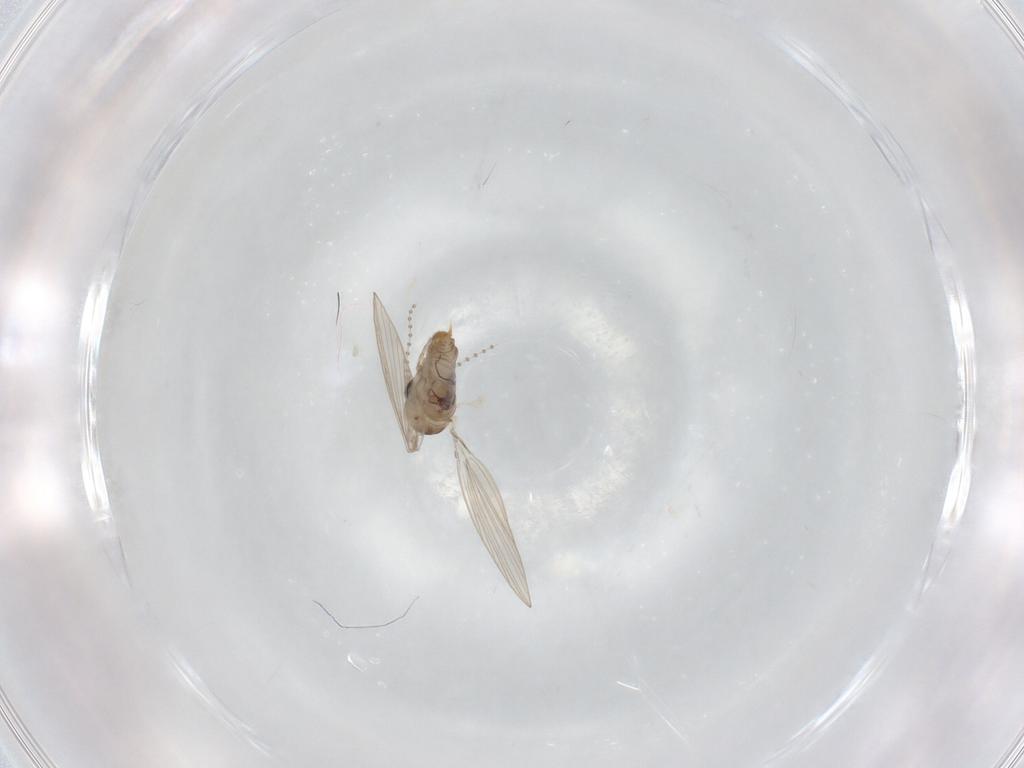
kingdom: Animalia
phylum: Arthropoda
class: Insecta
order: Diptera
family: Psychodidae
